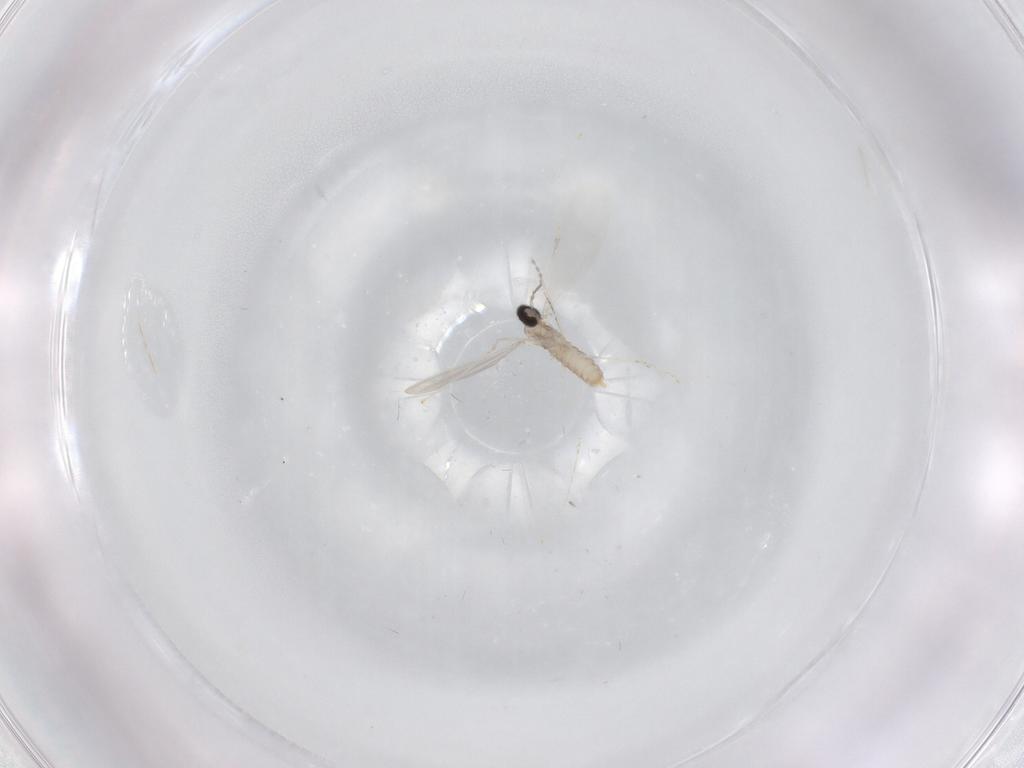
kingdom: Animalia
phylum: Arthropoda
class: Insecta
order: Diptera
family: Cecidomyiidae
